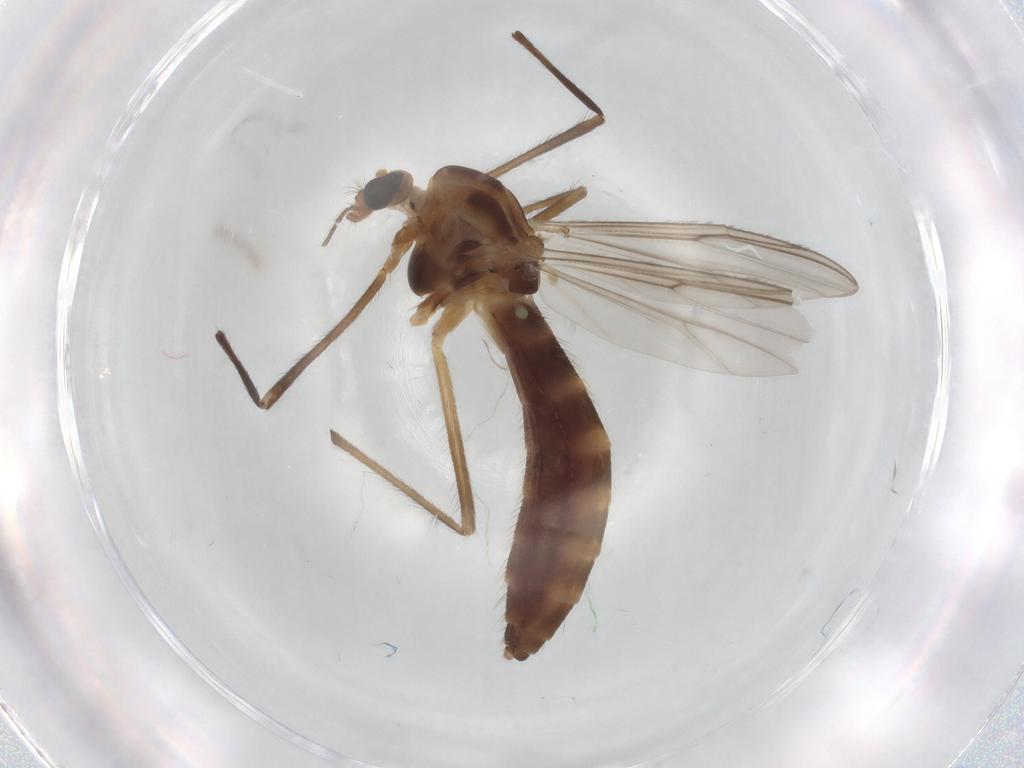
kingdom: Animalia
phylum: Arthropoda
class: Insecta
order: Diptera
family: Chironomidae
